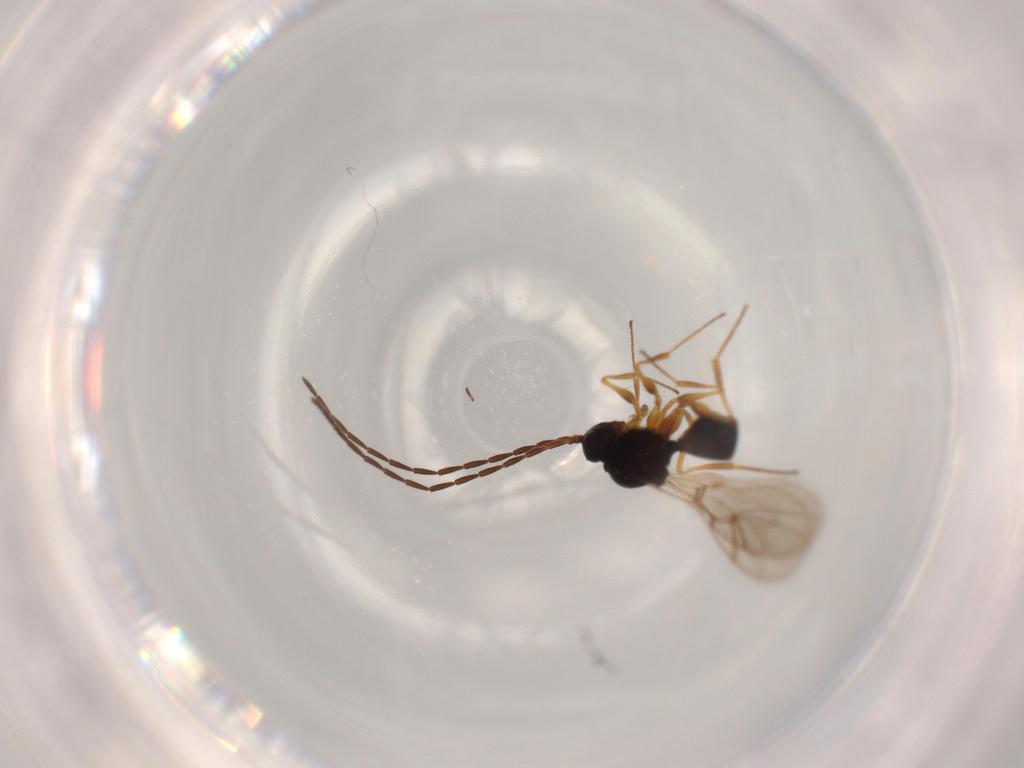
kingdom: Animalia
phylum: Arthropoda
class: Insecta
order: Hymenoptera
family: Figitidae
